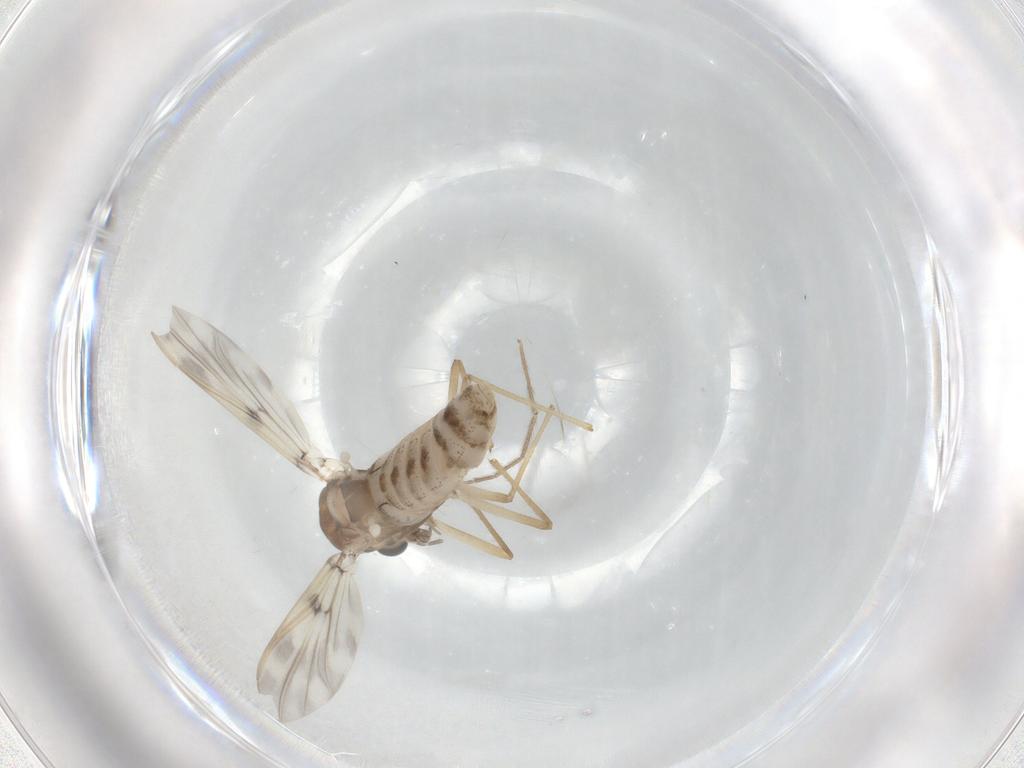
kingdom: Animalia
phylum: Arthropoda
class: Insecta
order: Diptera
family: Chironomidae
